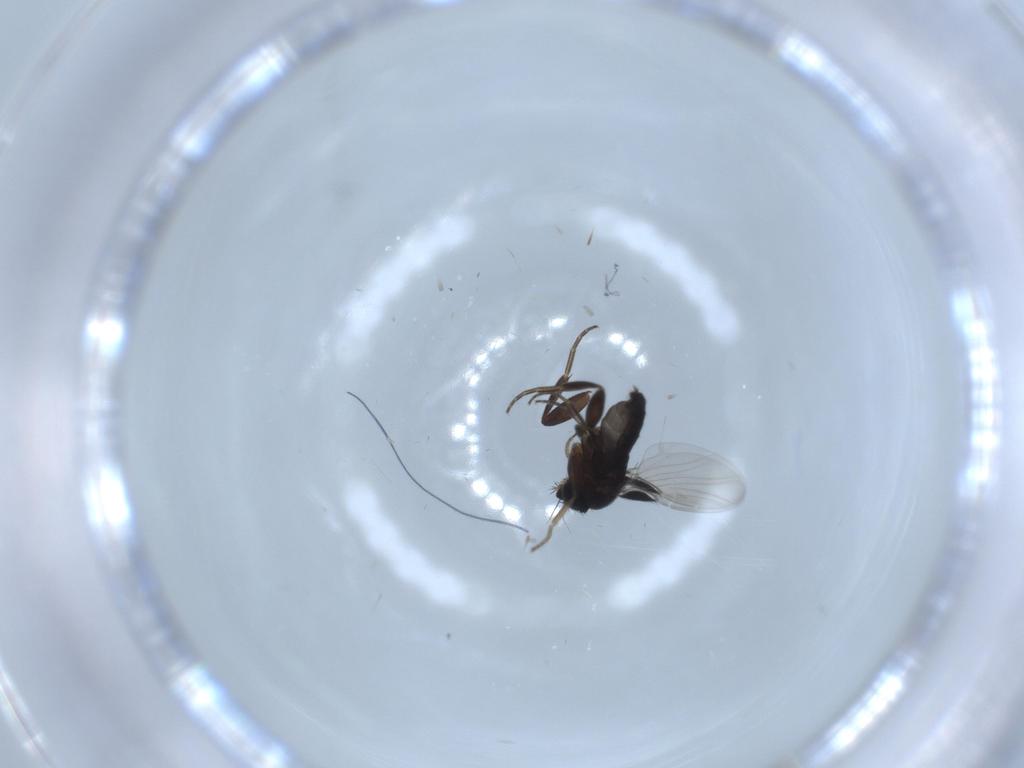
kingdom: Animalia
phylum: Arthropoda
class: Insecta
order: Diptera
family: Phoridae
